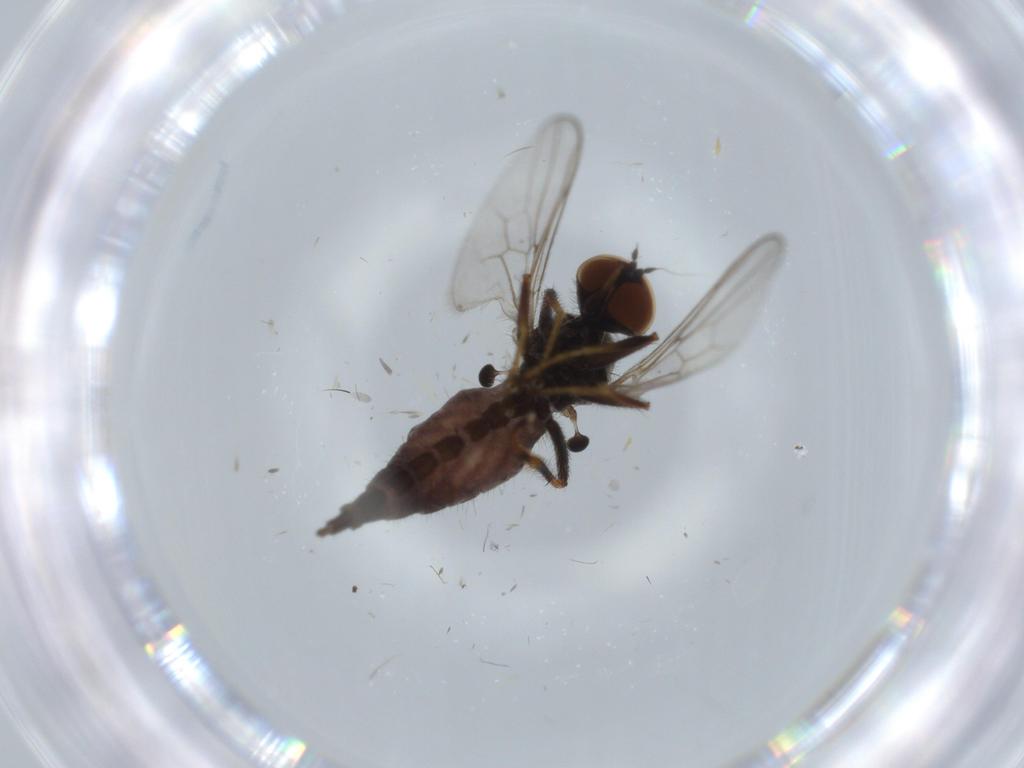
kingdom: Animalia
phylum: Arthropoda
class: Insecta
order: Diptera
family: Hybotidae
